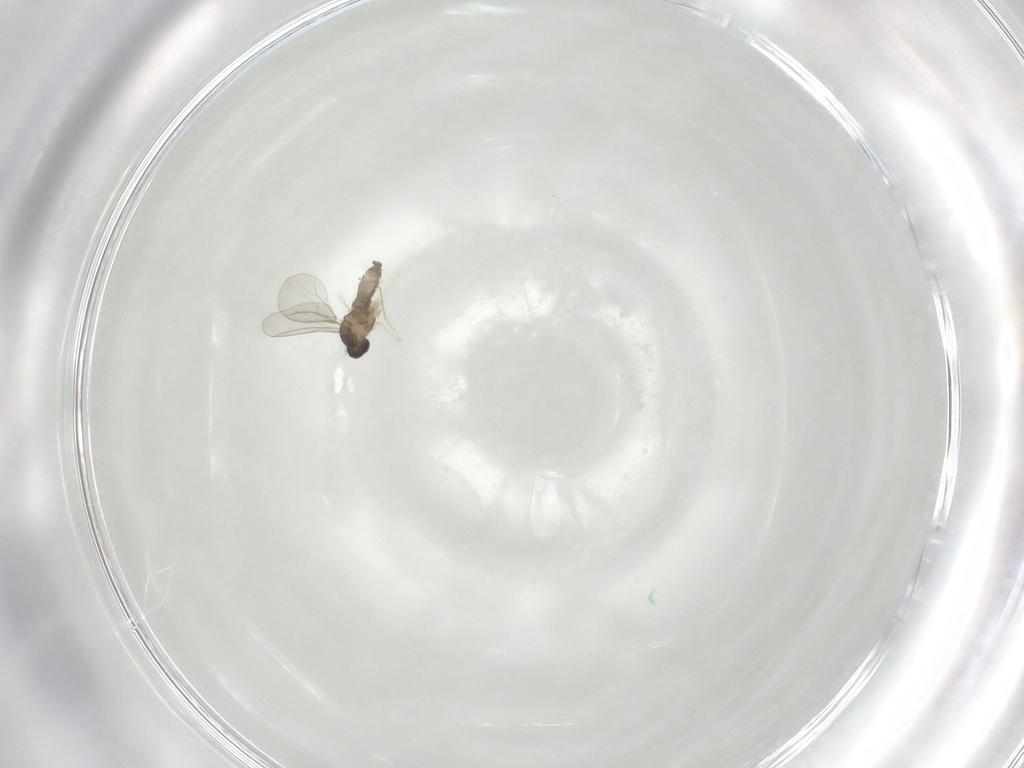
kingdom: Animalia
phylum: Arthropoda
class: Insecta
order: Diptera
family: Cecidomyiidae
